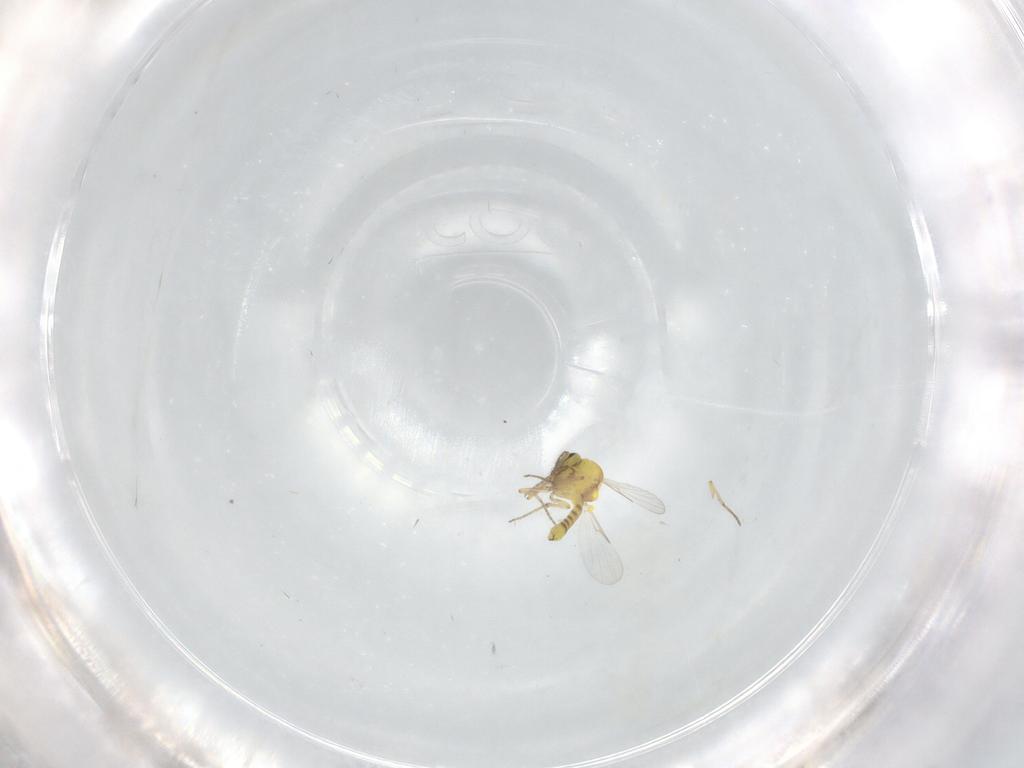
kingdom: Animalia
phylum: Arthropoda
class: Insecta
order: Diptera
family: Ceratopogonidae
